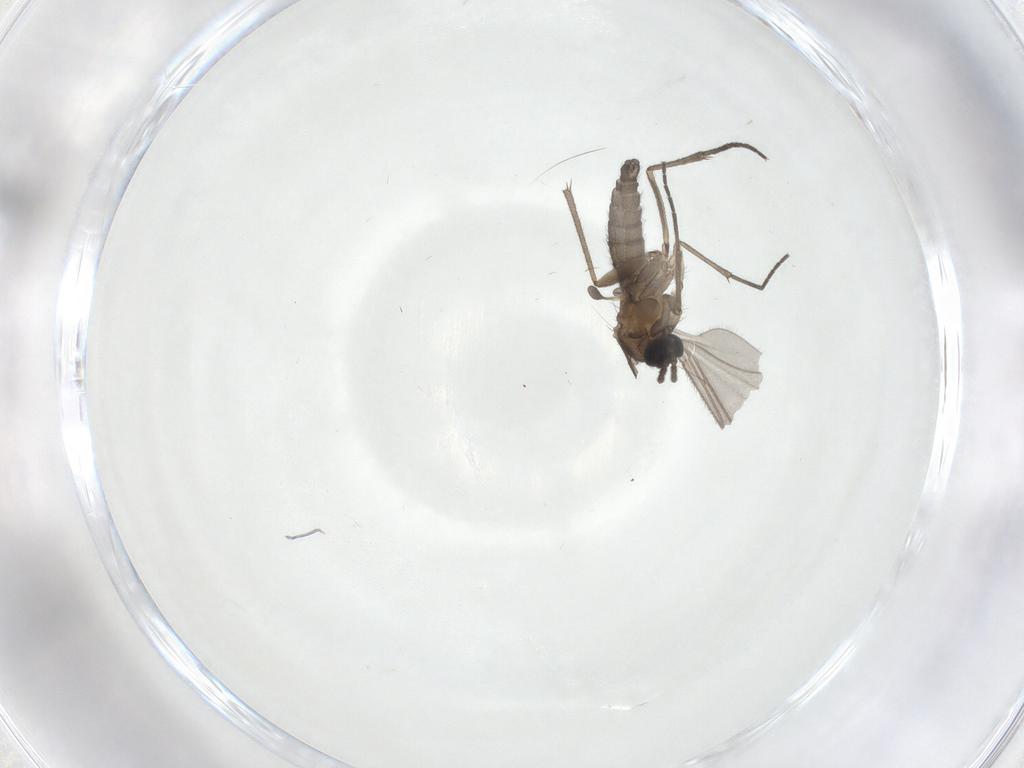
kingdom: Animalia
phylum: Arthropoda
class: Insecta
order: Diptera
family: Sciaridae
